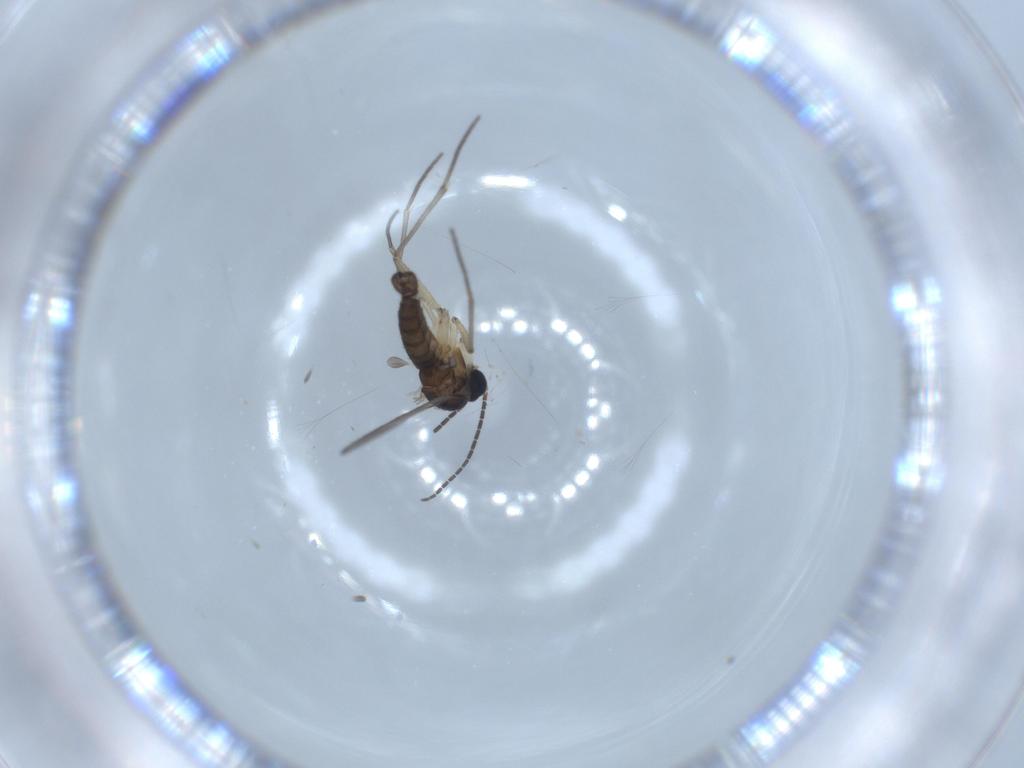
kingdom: Animalia
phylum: Arthropoda
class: Insecta
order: Diptera
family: Sciaridae
